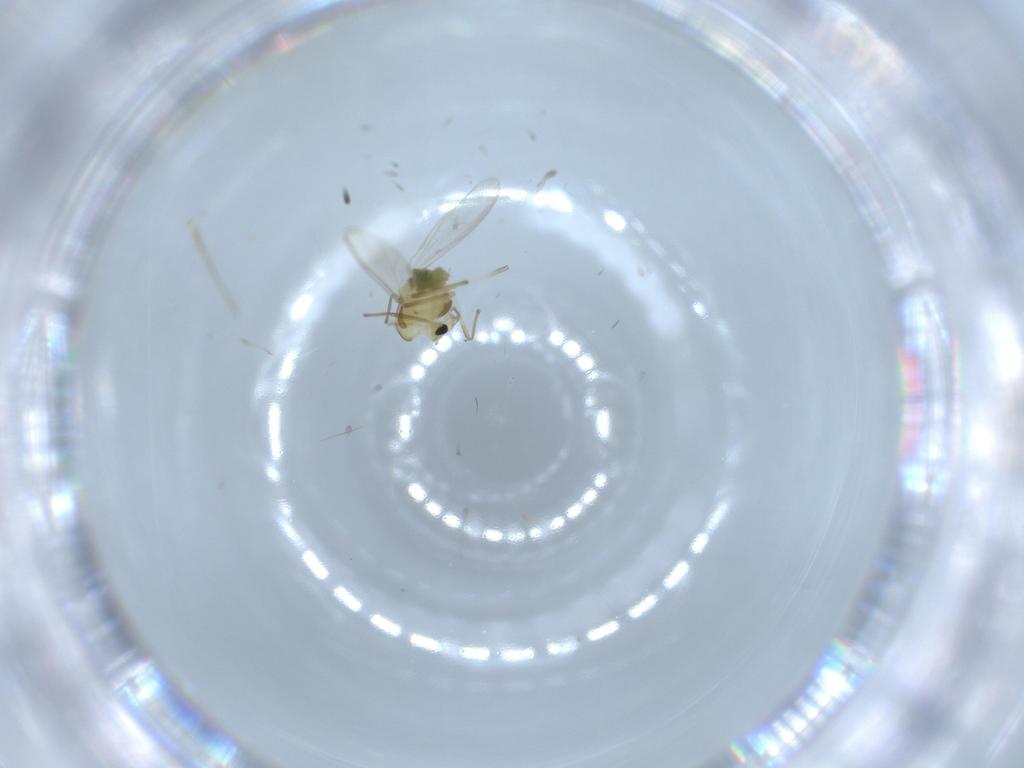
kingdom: Animalia
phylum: Arthropoda
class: Insecta
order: Diptera
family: Chironomidae
